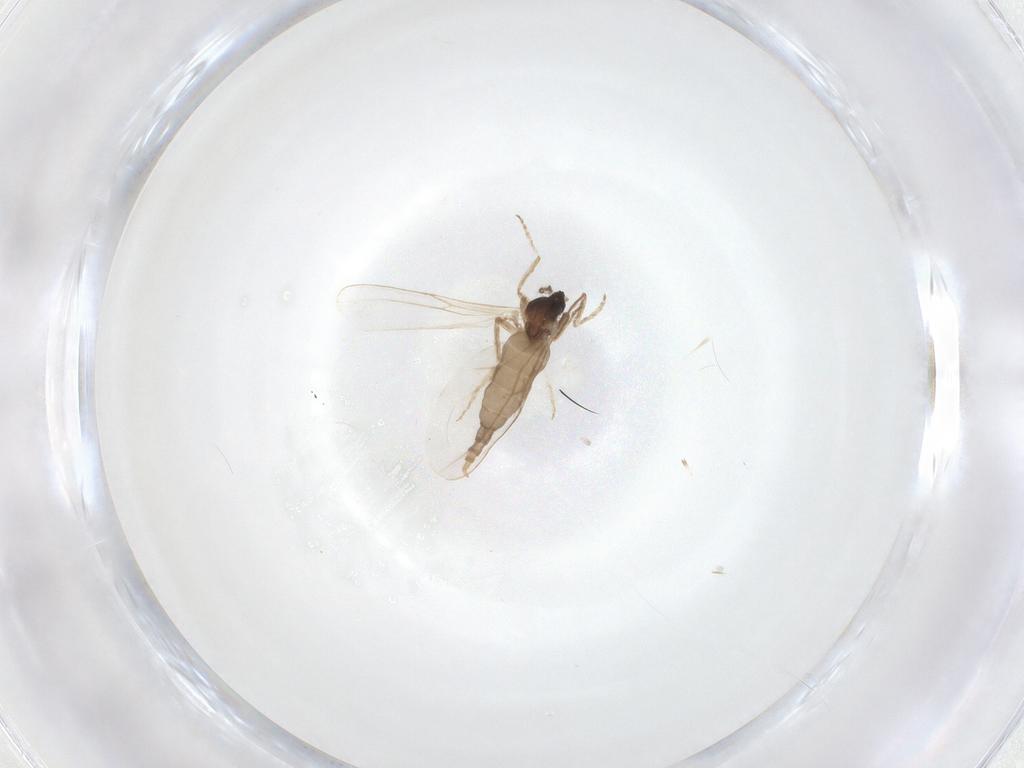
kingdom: Animalia
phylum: Arthropoda
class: Insecta
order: Diptera
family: Cecidomyiidae
